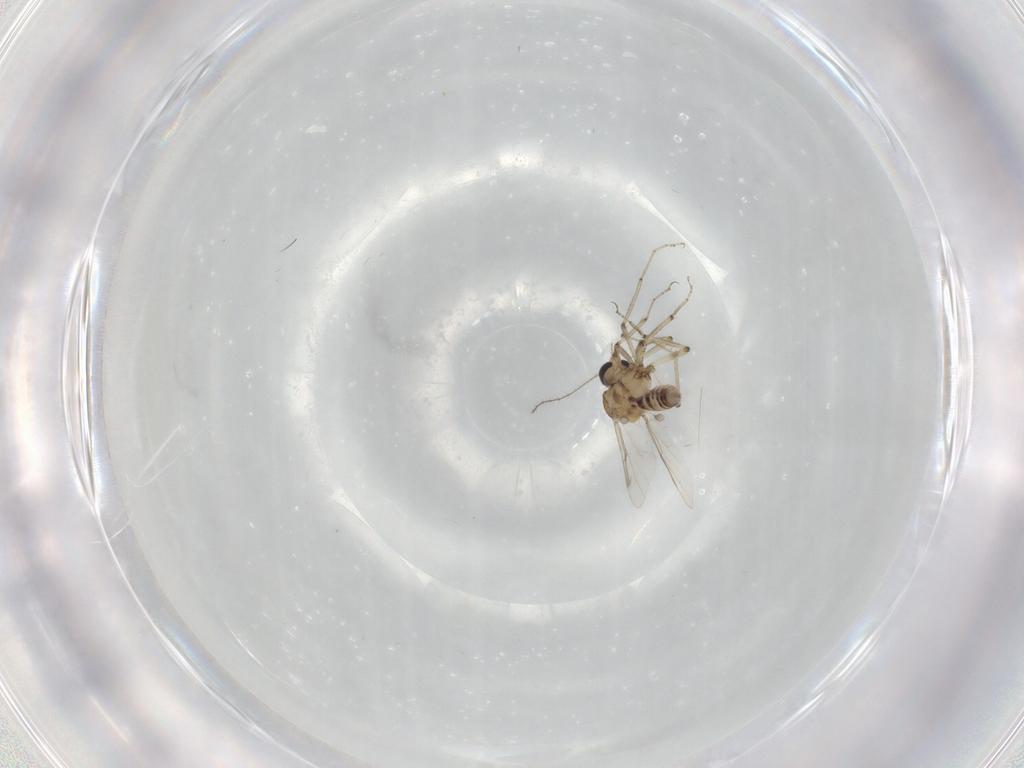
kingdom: Animalia
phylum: Arthropoda
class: Insecta
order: Diptera
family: Ceratopogonidae
